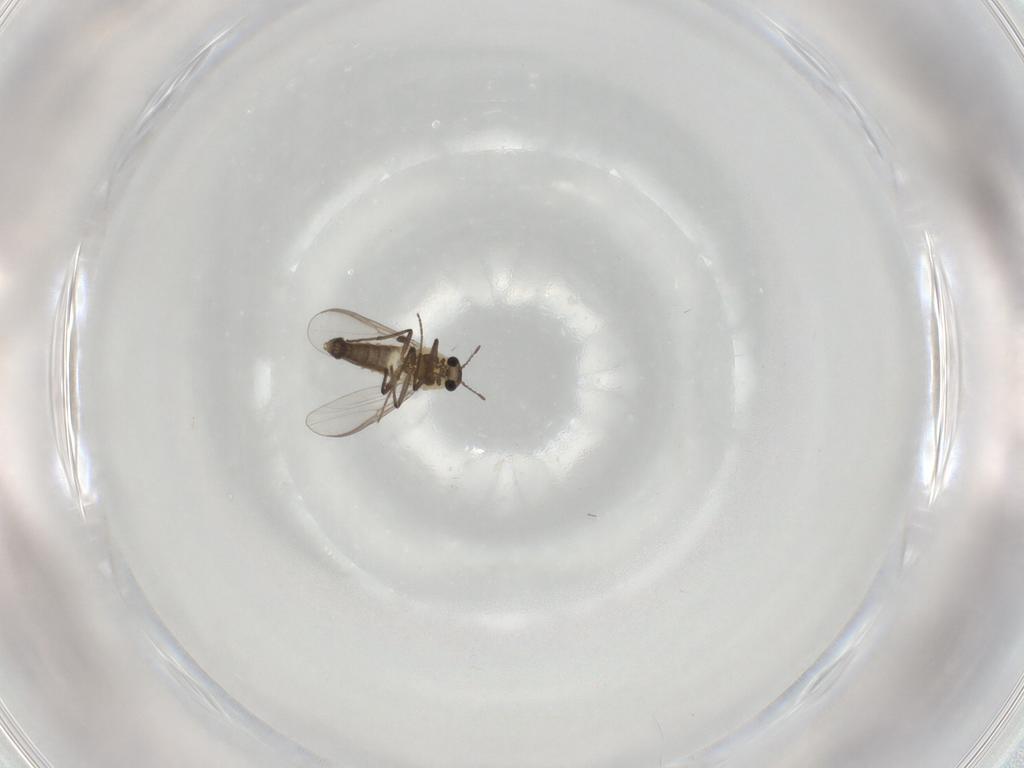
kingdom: Animalia
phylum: Arthropoda
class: Insecta
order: Diptera
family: Chironomidae
